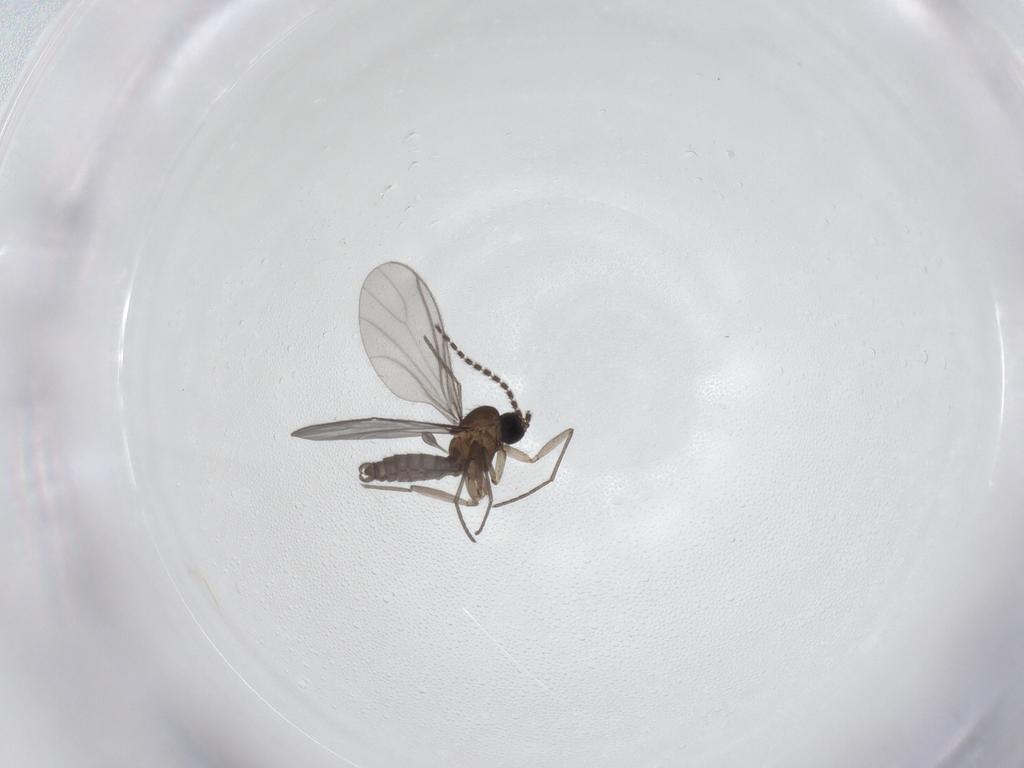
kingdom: Animalia
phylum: Arthropoda
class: Insecta
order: Diptera
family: Sciaridae
